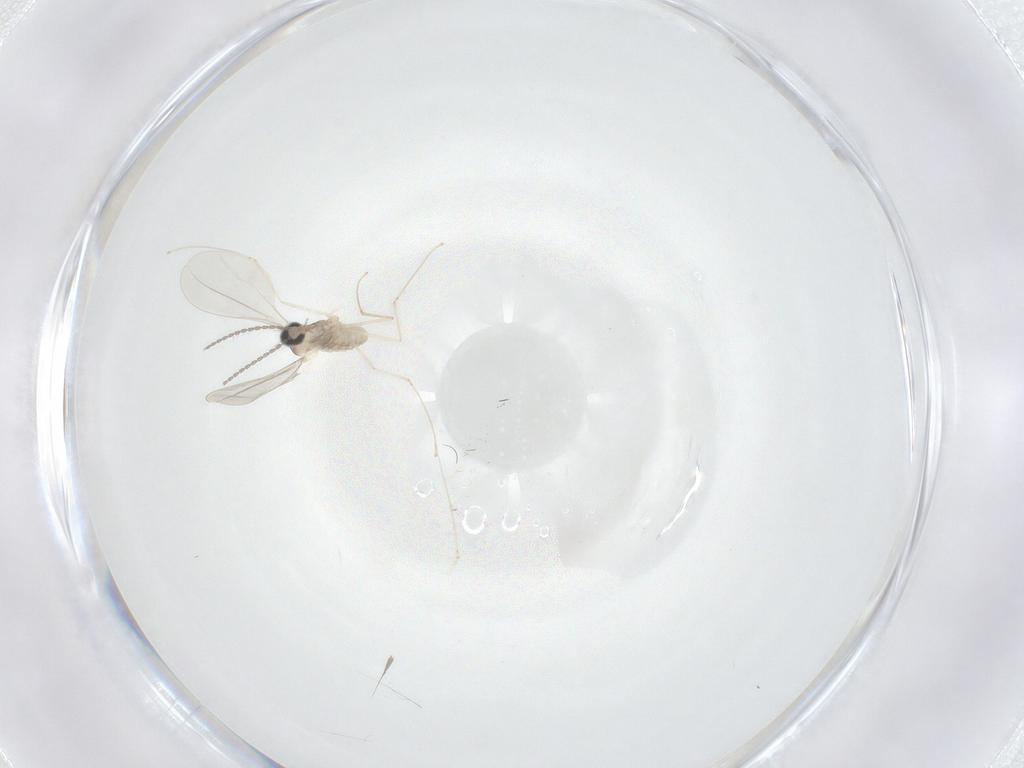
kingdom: Animalia
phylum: Arthropoda
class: Insecta
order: Diptera
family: Cecidomyiidae
